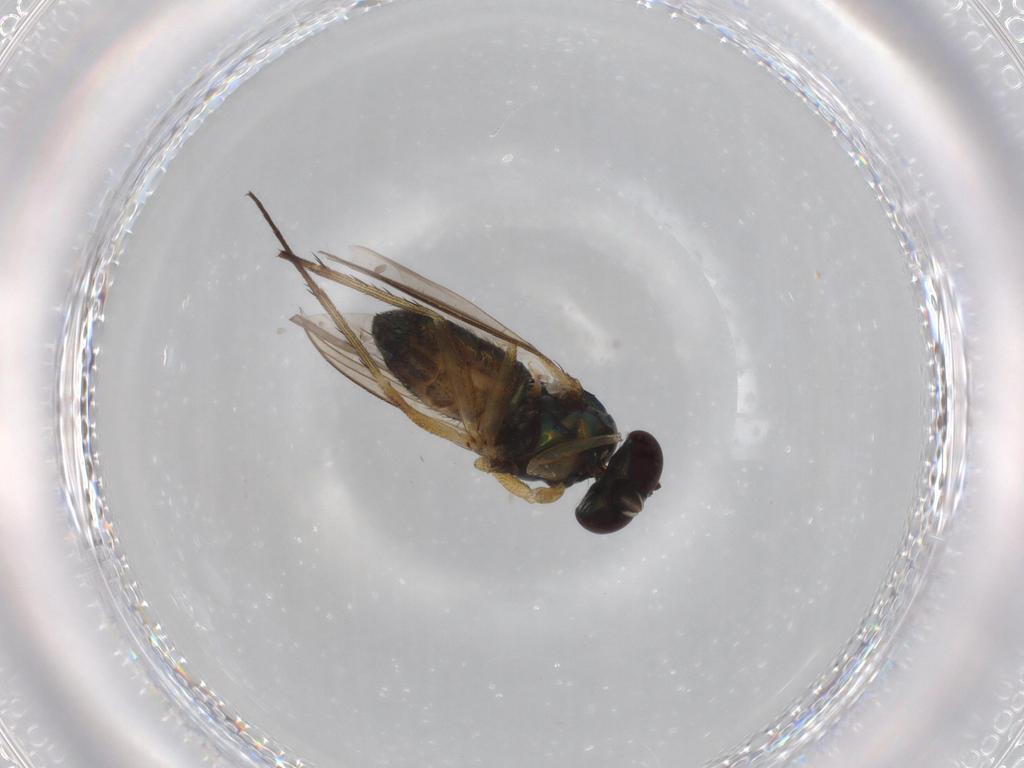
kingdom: Animalia
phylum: Arthropoda
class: Insecta
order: Diptera
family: Dolichopodidae
